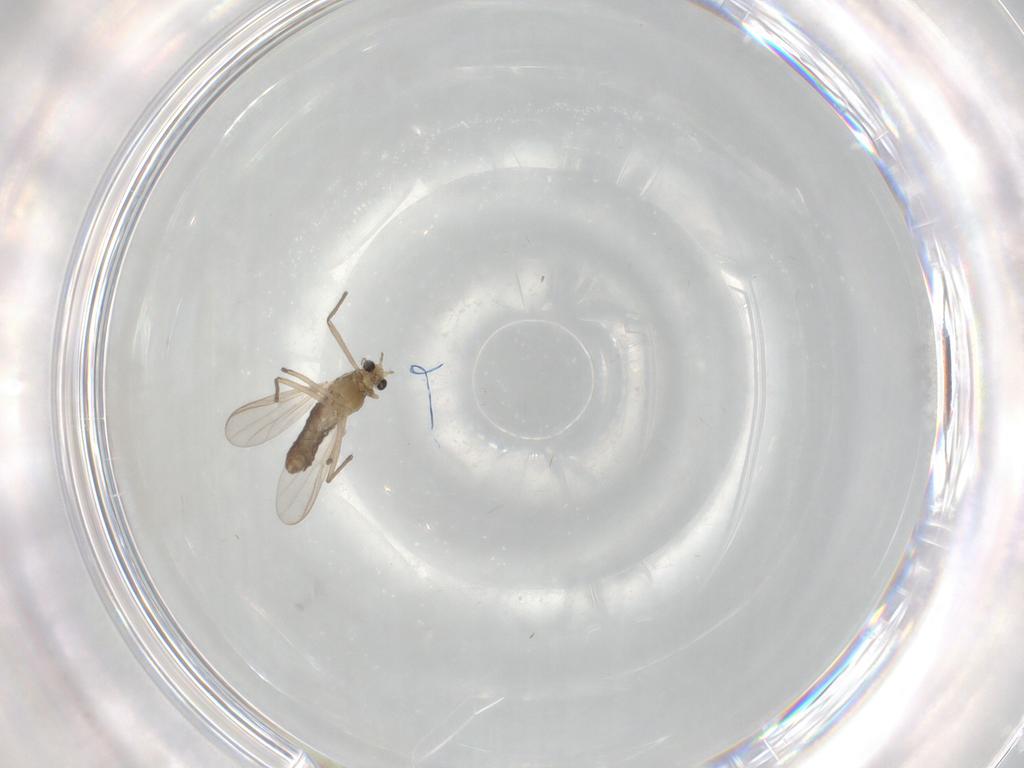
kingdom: Animalia
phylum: Arthropoda
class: Insecta
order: Diptera
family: Chironomidae
